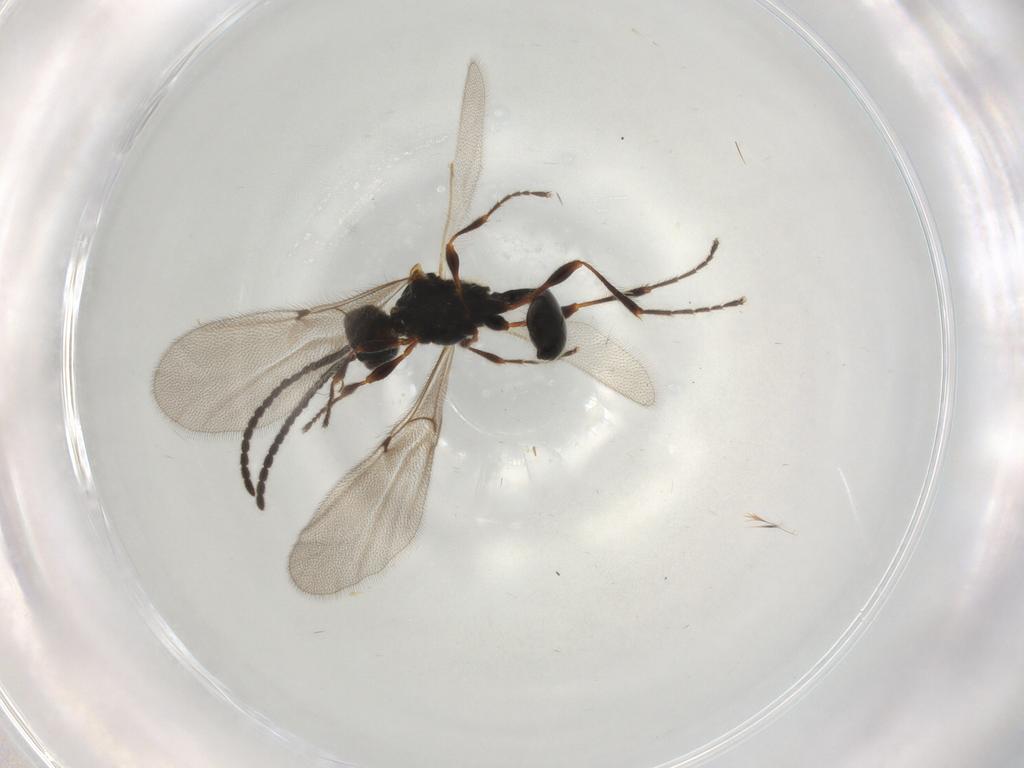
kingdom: Animalia
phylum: Arthropoda
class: Insecta
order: Hymenoptera
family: Diapriidae
